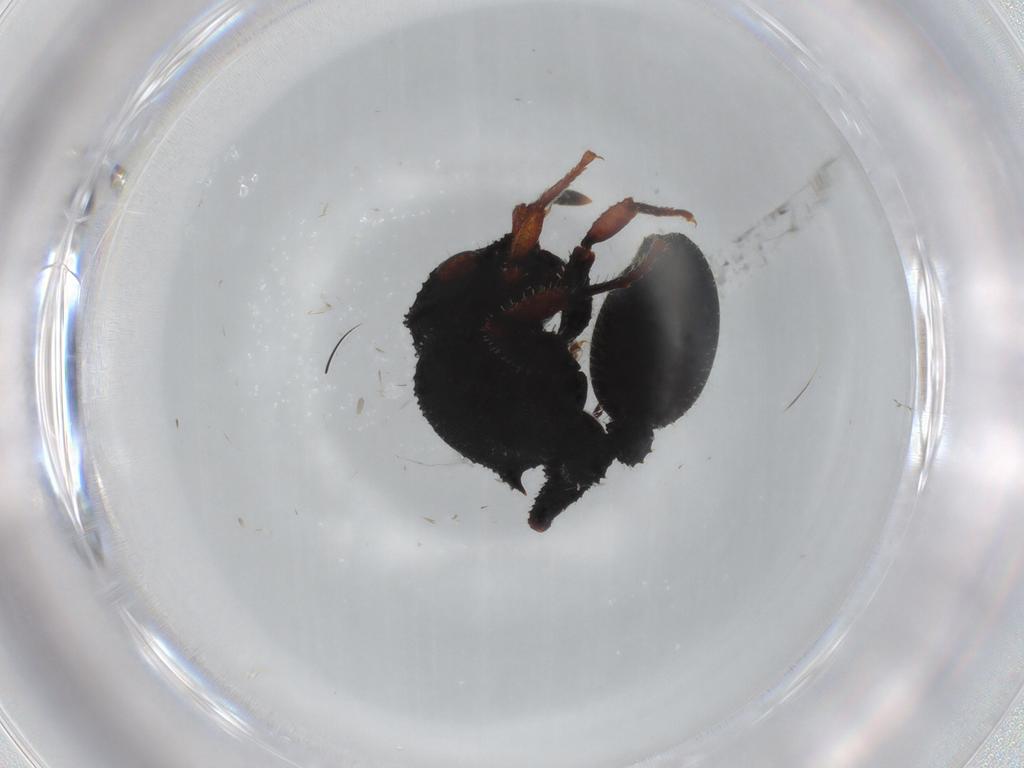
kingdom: Animalia
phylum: Arthropoda
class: Insecta
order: Hymenoptera
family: Formicidae
